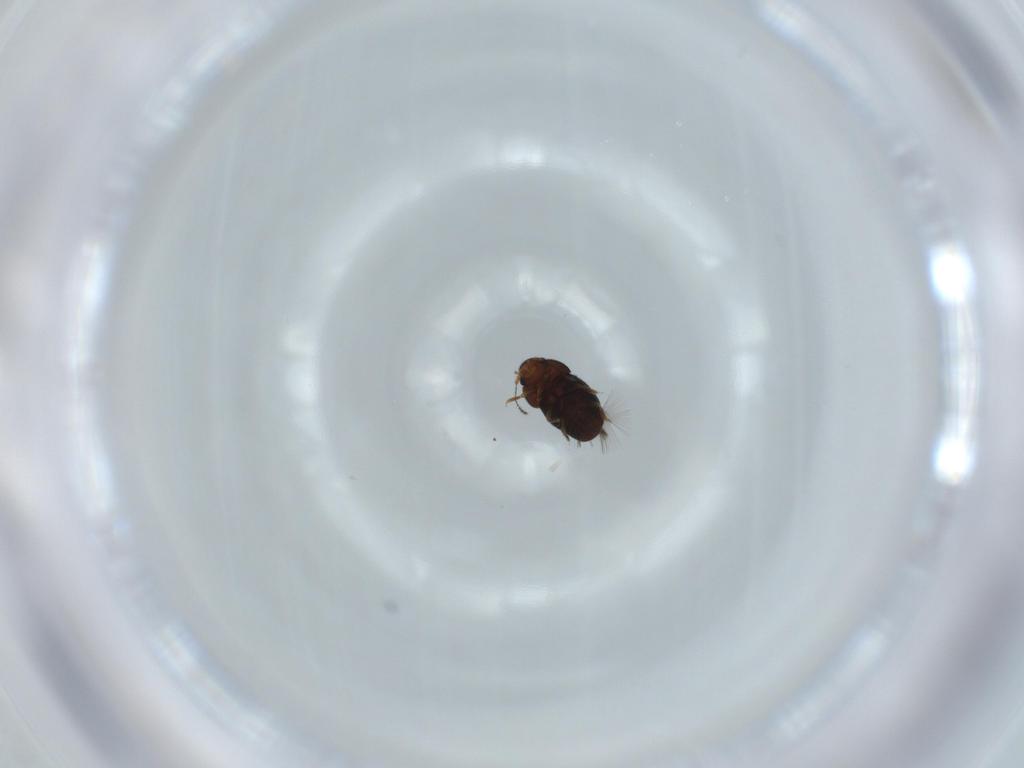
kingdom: Animalia
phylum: Arthropoda
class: Insecta
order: Coleoptera
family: Ptiliidae
